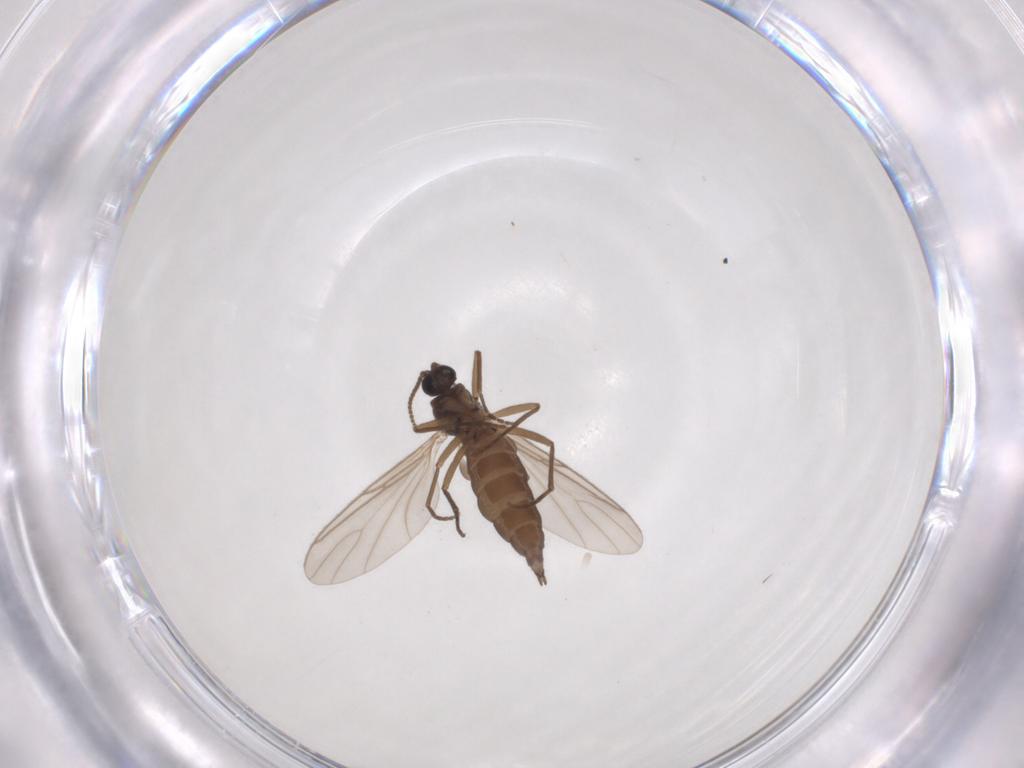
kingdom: Animalia
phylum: Arthropoda
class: Insecta
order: Diptera
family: Sciaridae
